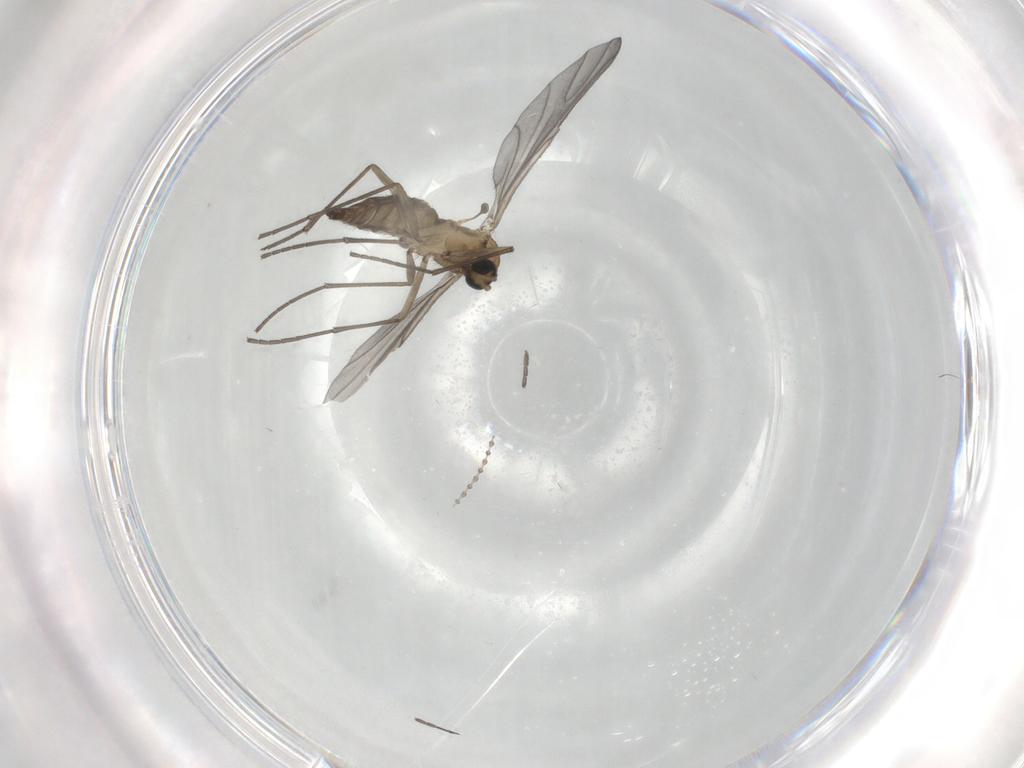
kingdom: Animalia
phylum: Arthropoda
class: Insecta
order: Diptera
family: Sciaridae
